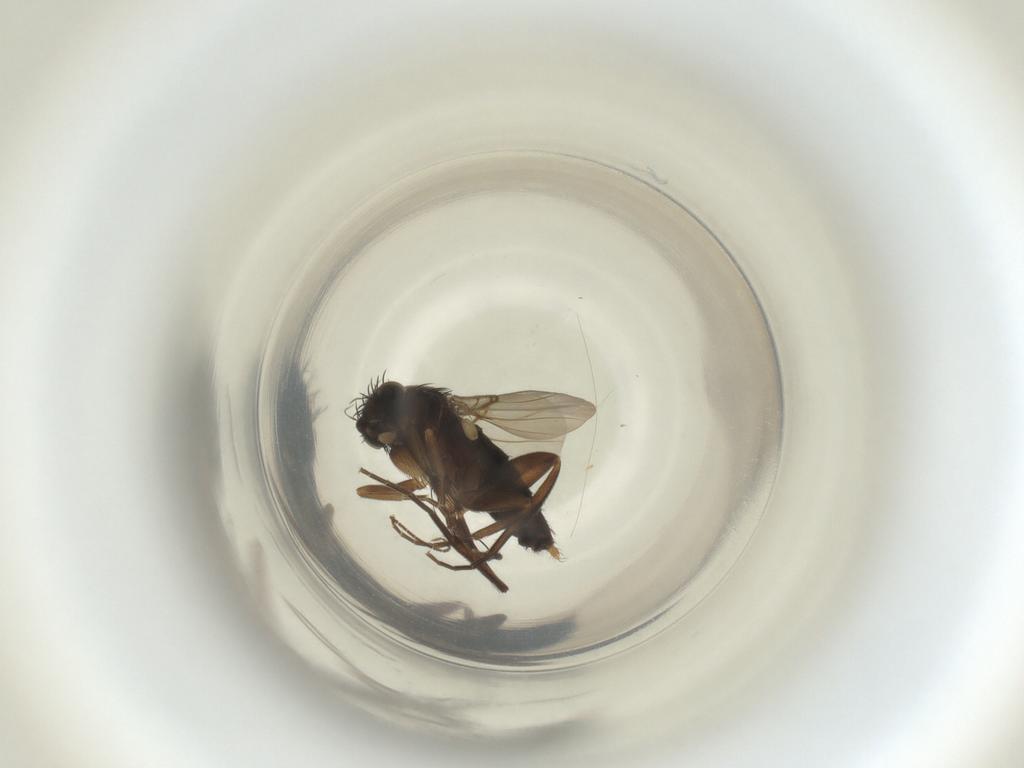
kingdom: Animalia
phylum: Arthropoda
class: Insecta
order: Diptera
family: Phoridae
